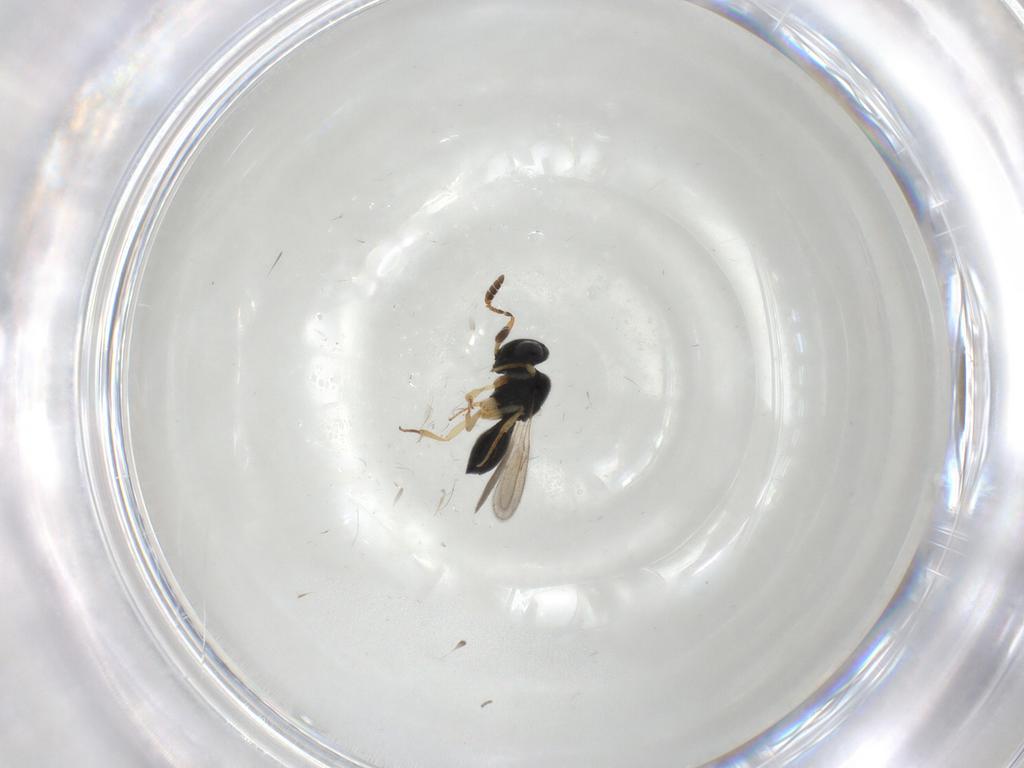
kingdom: Animalia
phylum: Arthropoda
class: Insecta
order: Hymenoptera
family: Scelionidae
